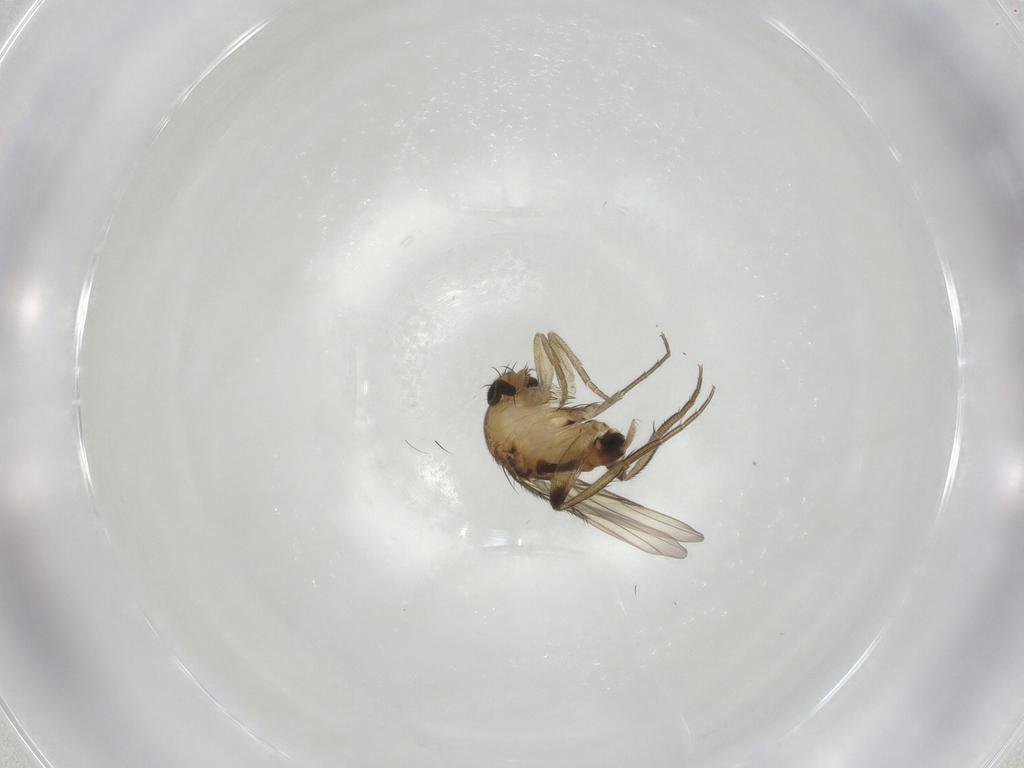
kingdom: Animalia
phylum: Arthropoda
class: Insecta
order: Diptera
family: Phoridae
